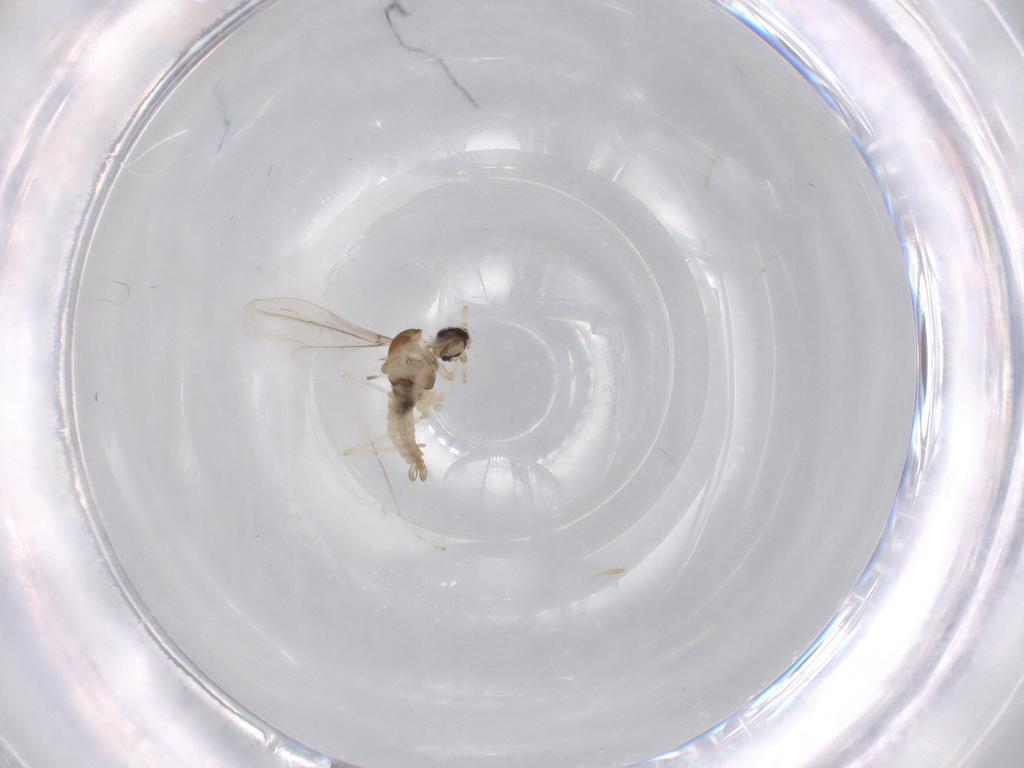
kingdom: Animalia
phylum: Arthropoda
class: Insecta
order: Diptera
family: Cecidomyiidae
